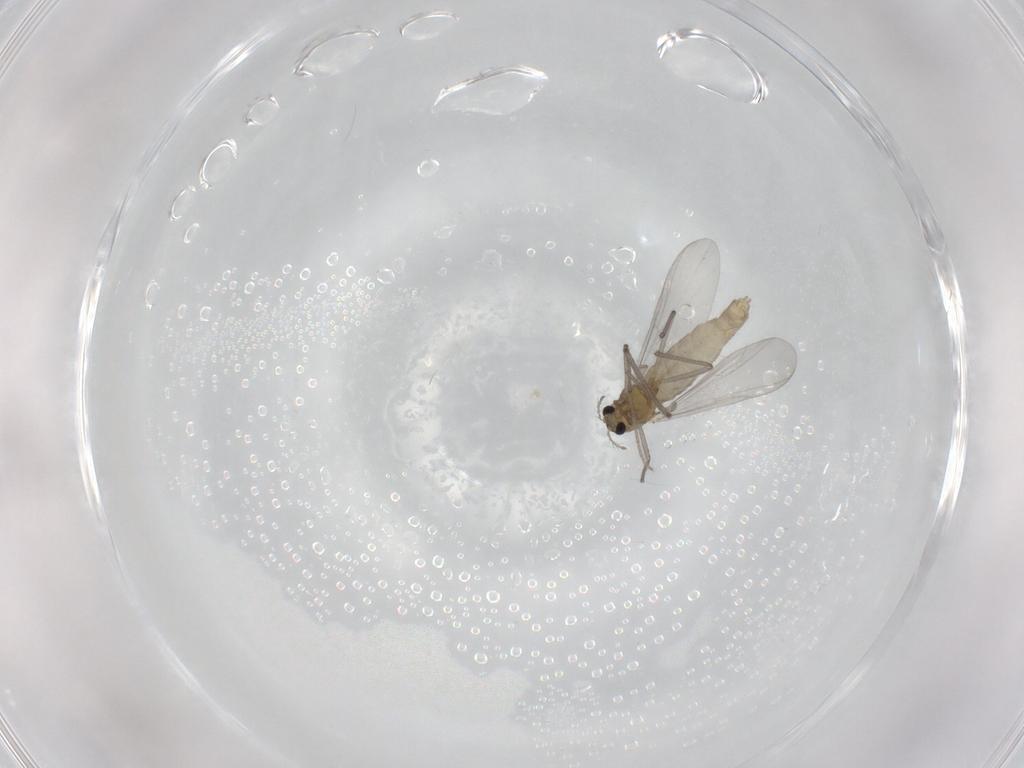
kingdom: Animalia
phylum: Arthropoda
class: Insecta
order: Diptera
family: Chironomidae
